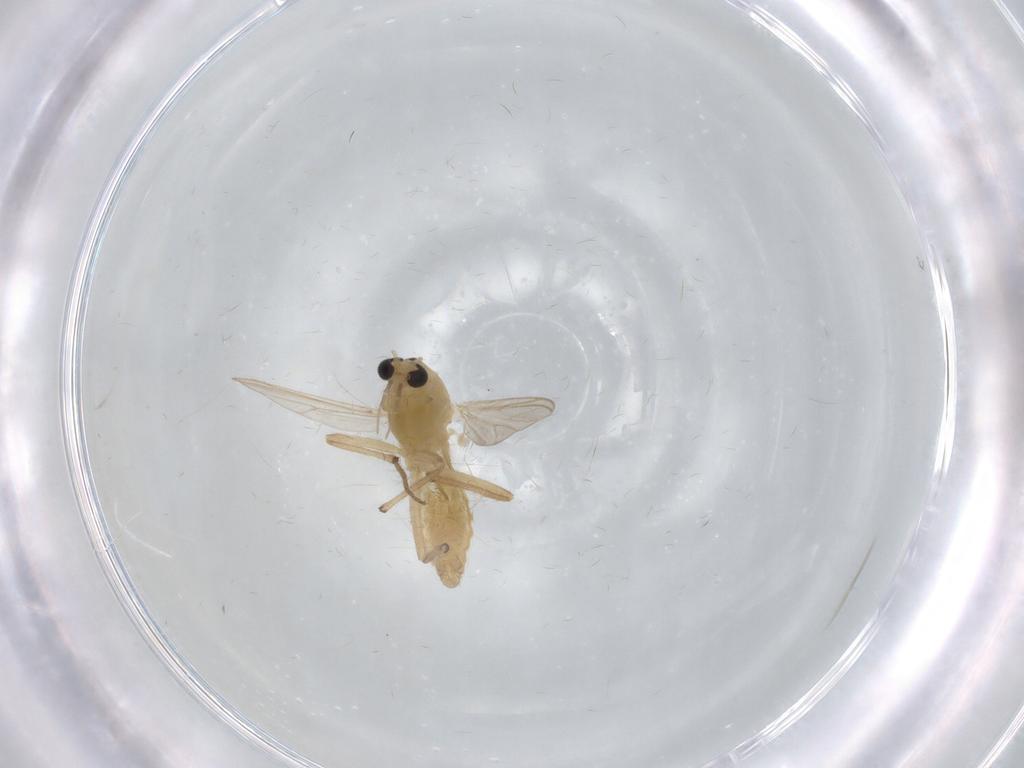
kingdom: Animalia
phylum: Arthropoda
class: Insecta
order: Diptera
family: Chironomidae
